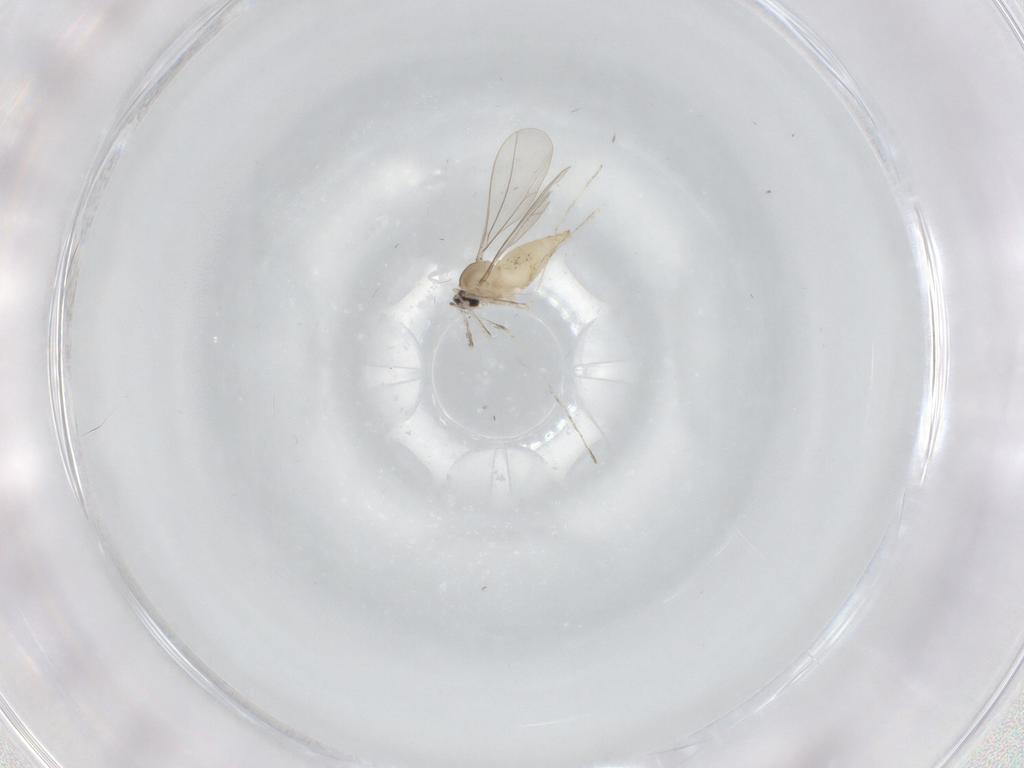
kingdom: Animalia
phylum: Arthropoda
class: Insecta
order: Diptera
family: Cecidomyiidae
